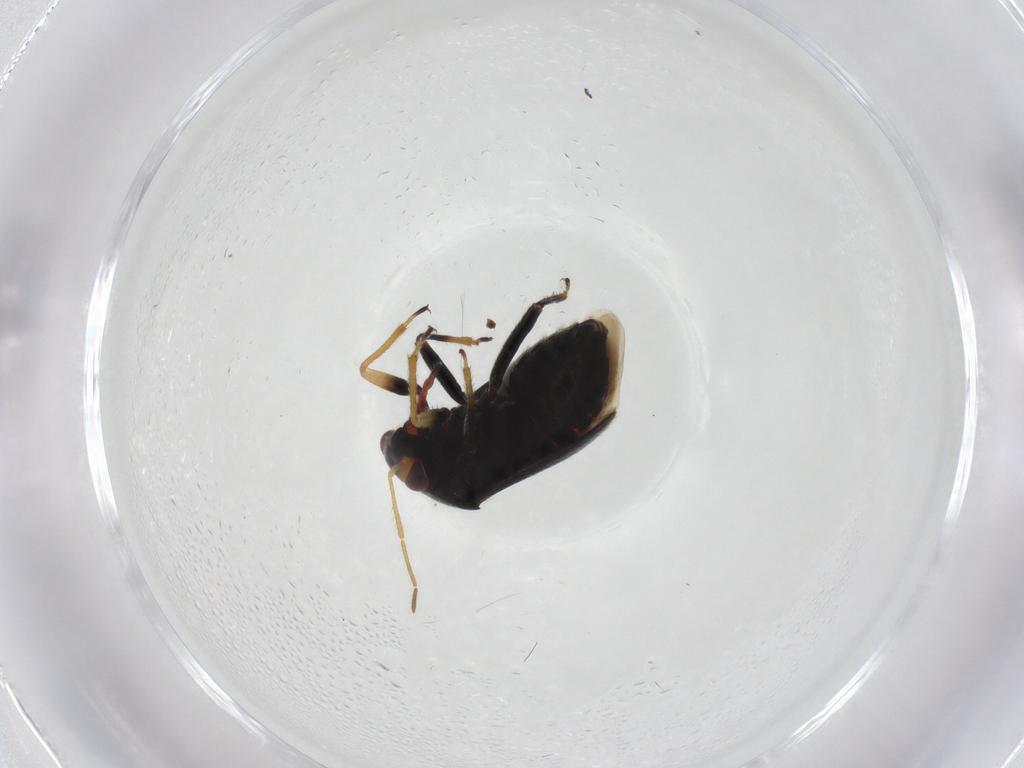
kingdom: Animalia
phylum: Arthropoda
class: Insecta
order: Hemiptera
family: Miridae
